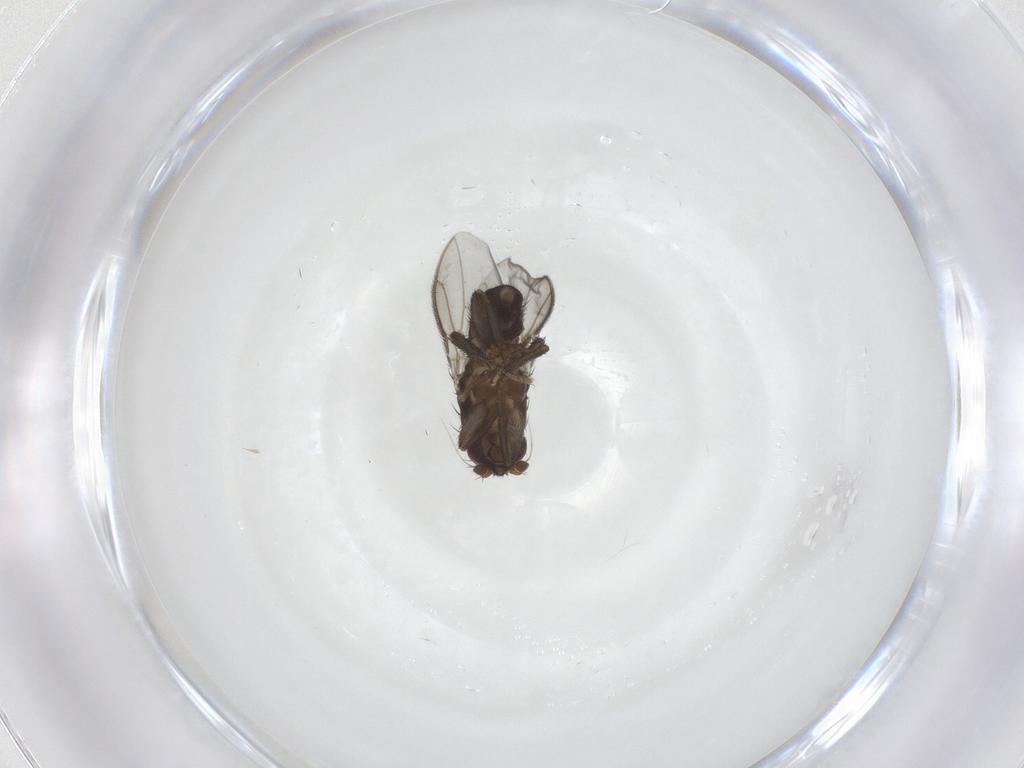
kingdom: Animalia
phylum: Arthropoda
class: Insecta
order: Diptera
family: Sphaeroceridae
